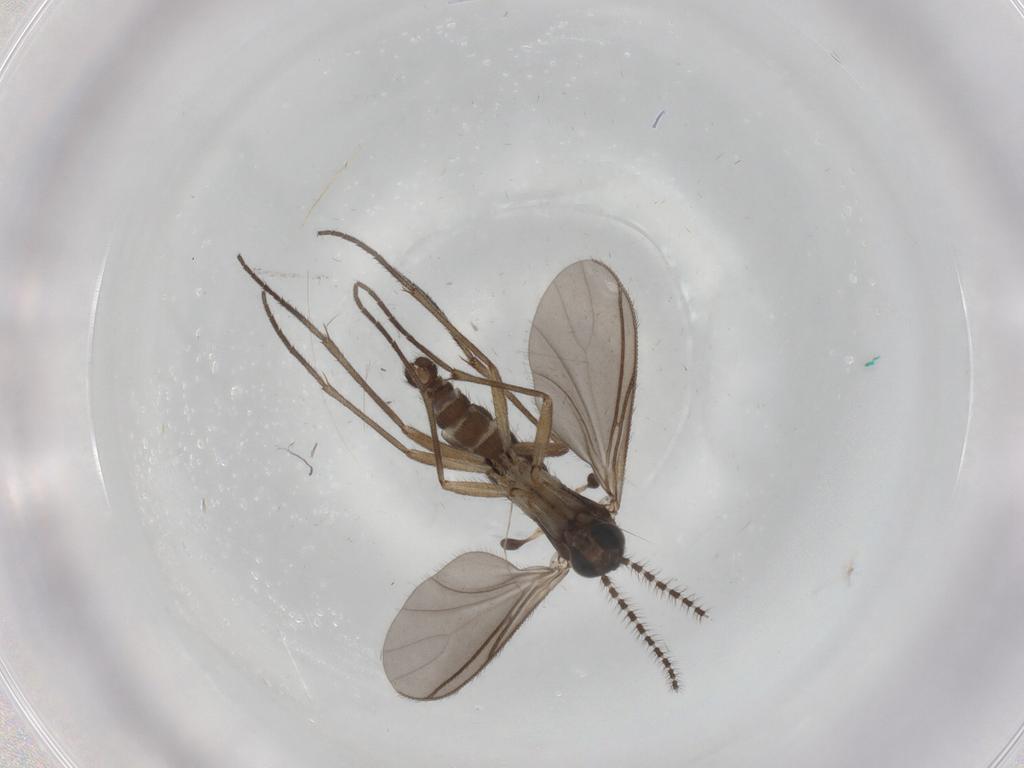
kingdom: Animalia
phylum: Arthropoda
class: Insecta
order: Diptera
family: Sciaridae
